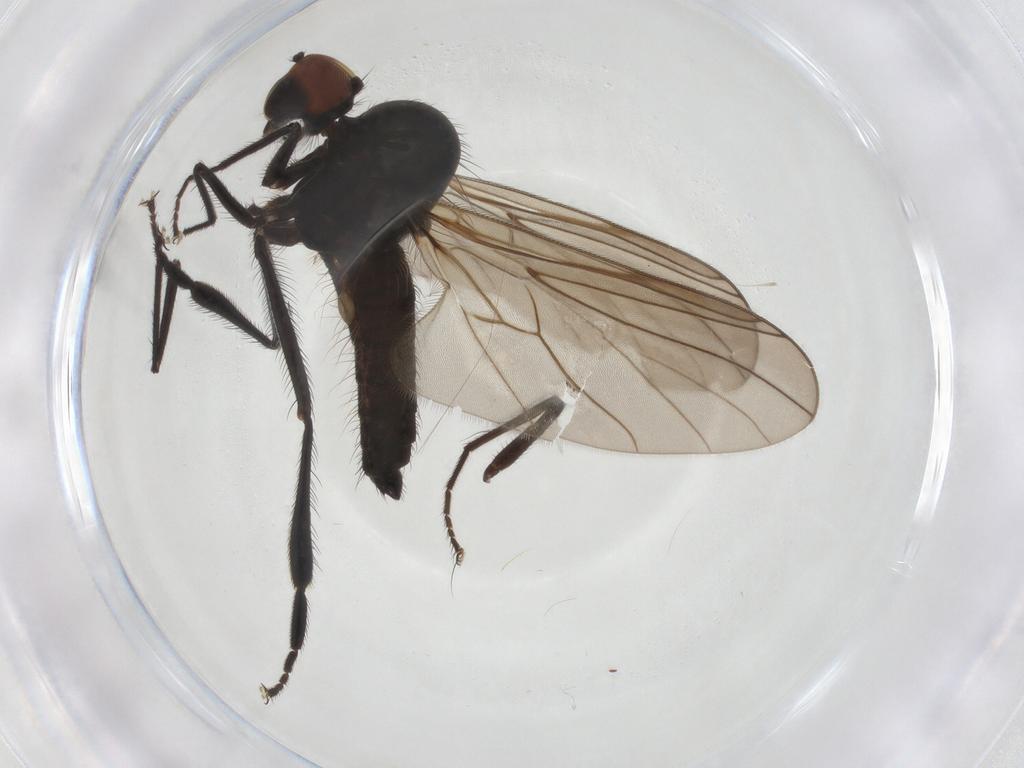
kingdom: Animalia
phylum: Arthropoda
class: Insecta
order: Diptera
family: Hybotidae
